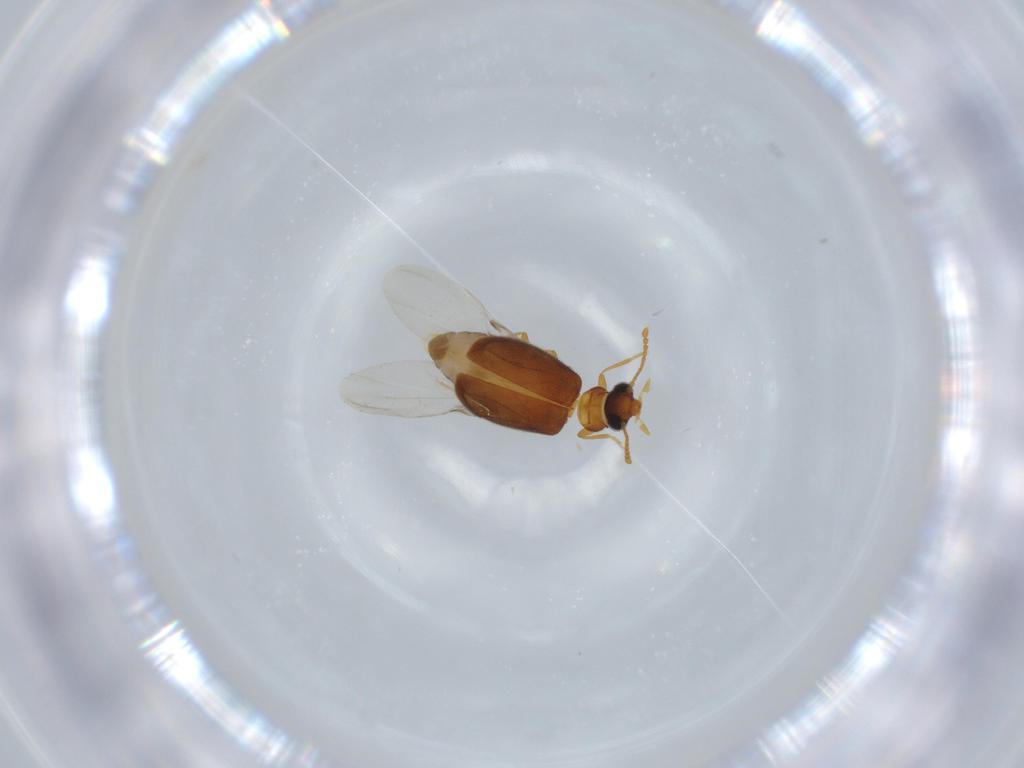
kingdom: Animalia
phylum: Arthropoda
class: Insecta
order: Coleoptera
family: Aderidae
